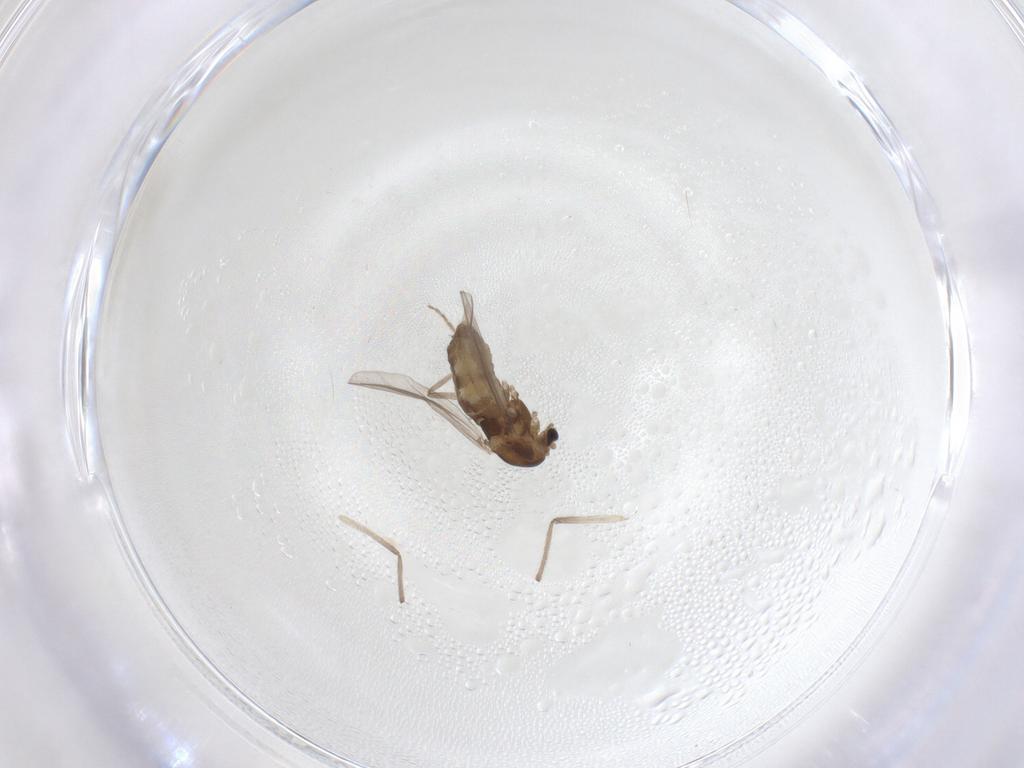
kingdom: Animalia
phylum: Arthropoda
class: Insecta
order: Diptera
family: Chironomidae
